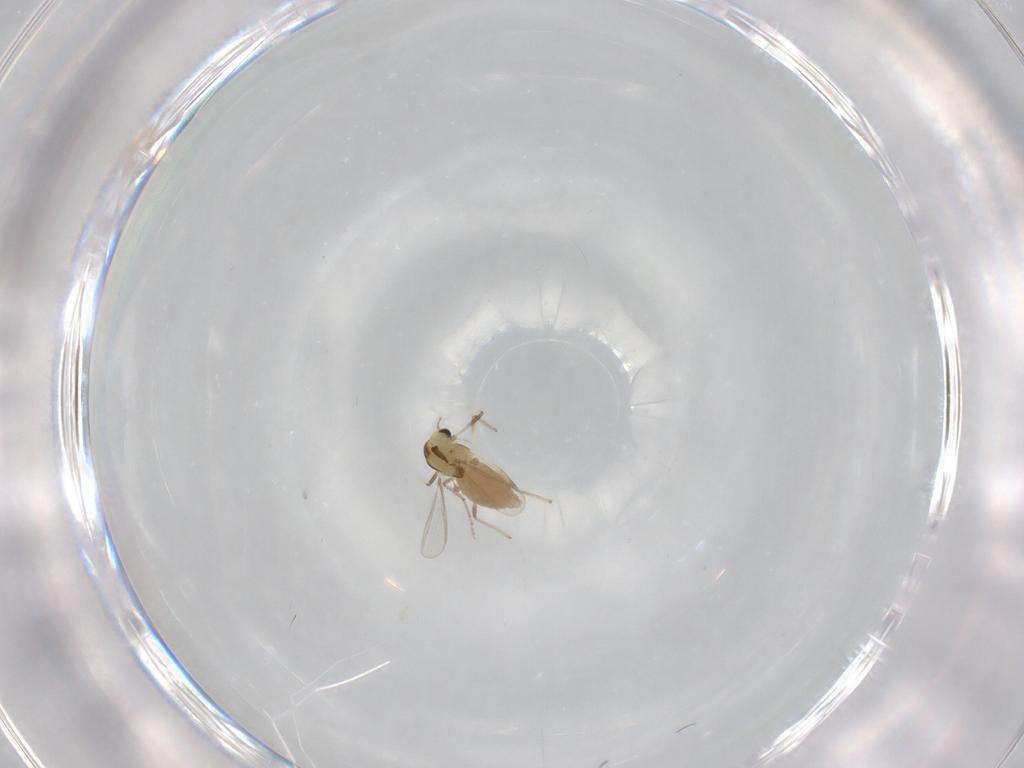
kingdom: Animalia
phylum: Arthropoda
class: Insecta
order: Diptera
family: Chironomidae
